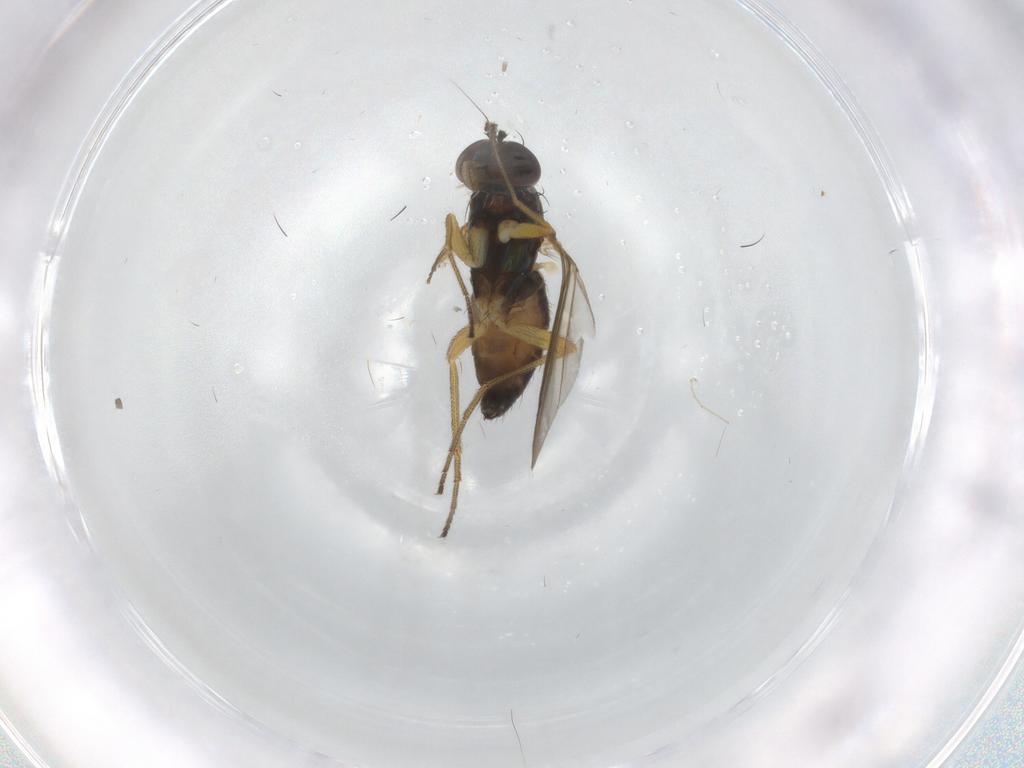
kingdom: Animalia
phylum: Arthropoda
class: Insecta
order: Diptera
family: Dolichopodidae
